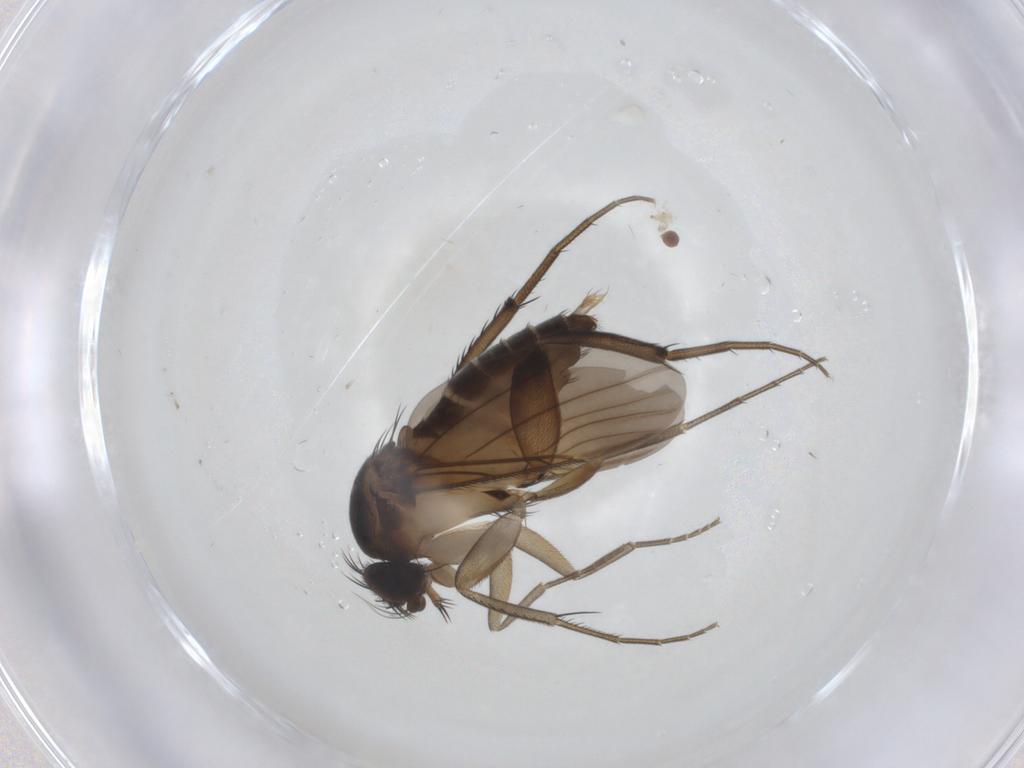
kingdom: Animalia
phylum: Arthropoda
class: Insecta
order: Diptera
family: Phoridae
